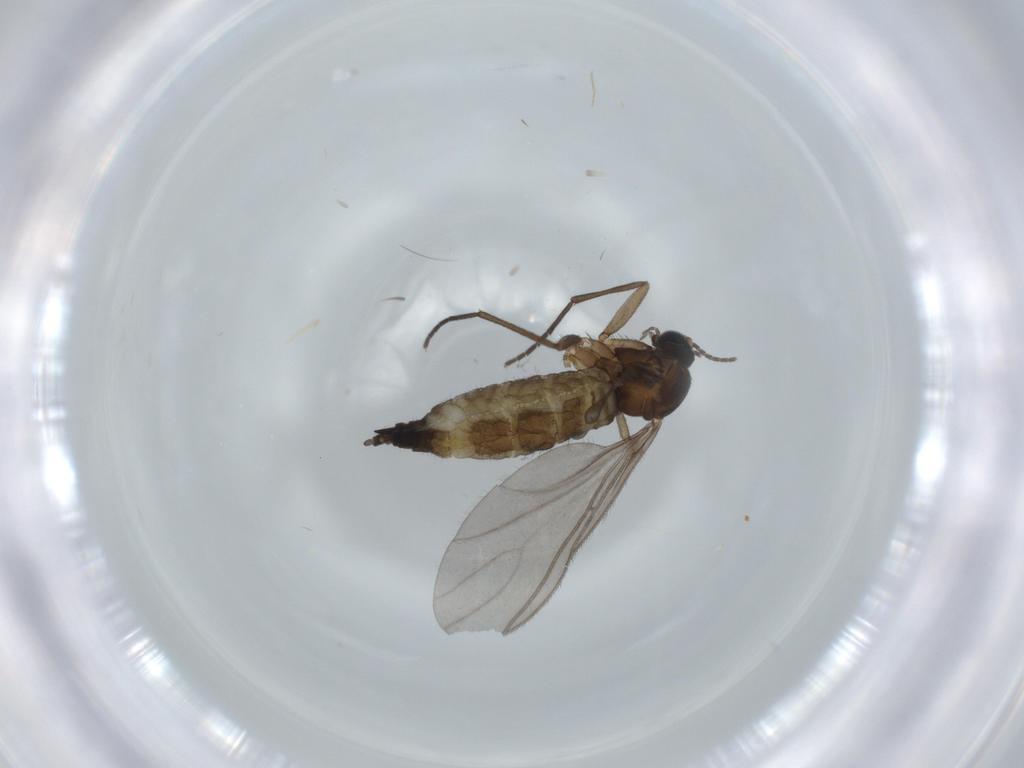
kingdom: Animalia
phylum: Arthropoda
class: Insecta
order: Diptera
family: Sciaridae
